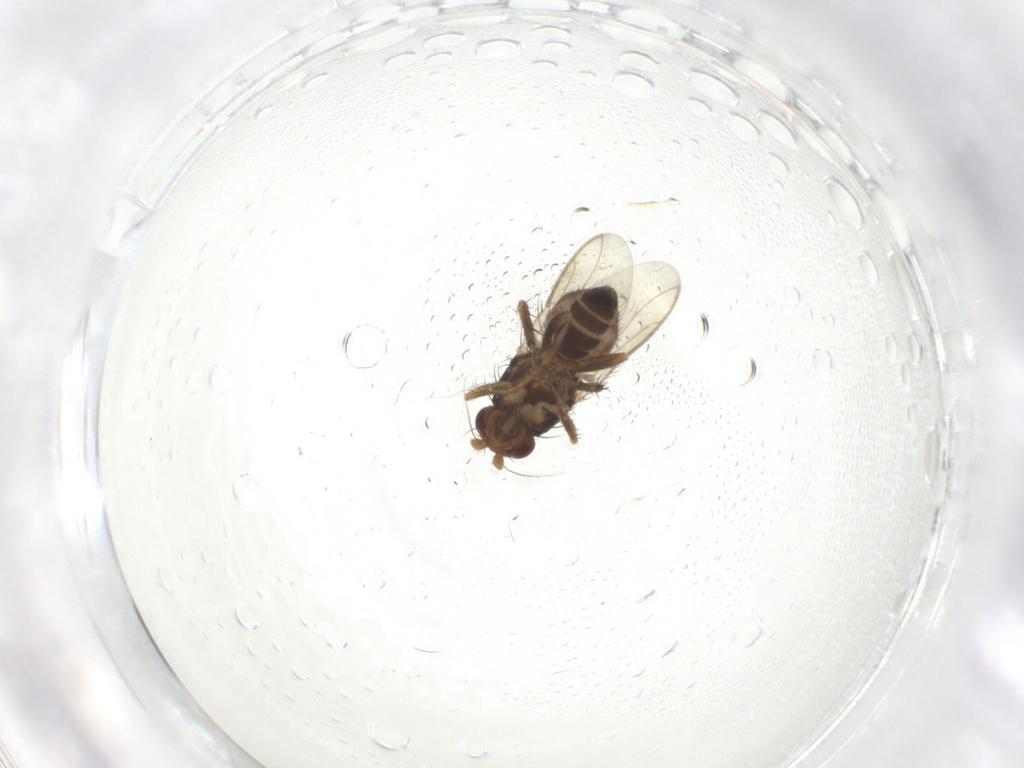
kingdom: Animalia
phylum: Arthropoda
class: Insecta
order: Diptera
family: Sphaeroceridae
